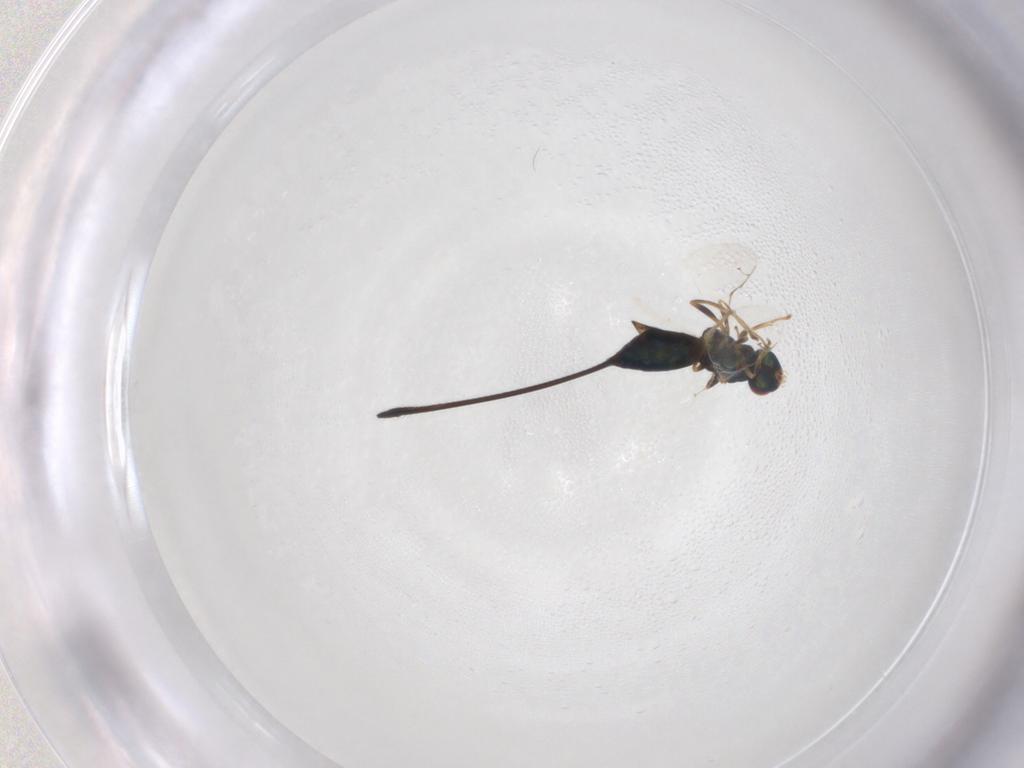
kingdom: Animalia
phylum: Arthropoda
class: Insecta
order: Hymenoptera
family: Pteromalidae
